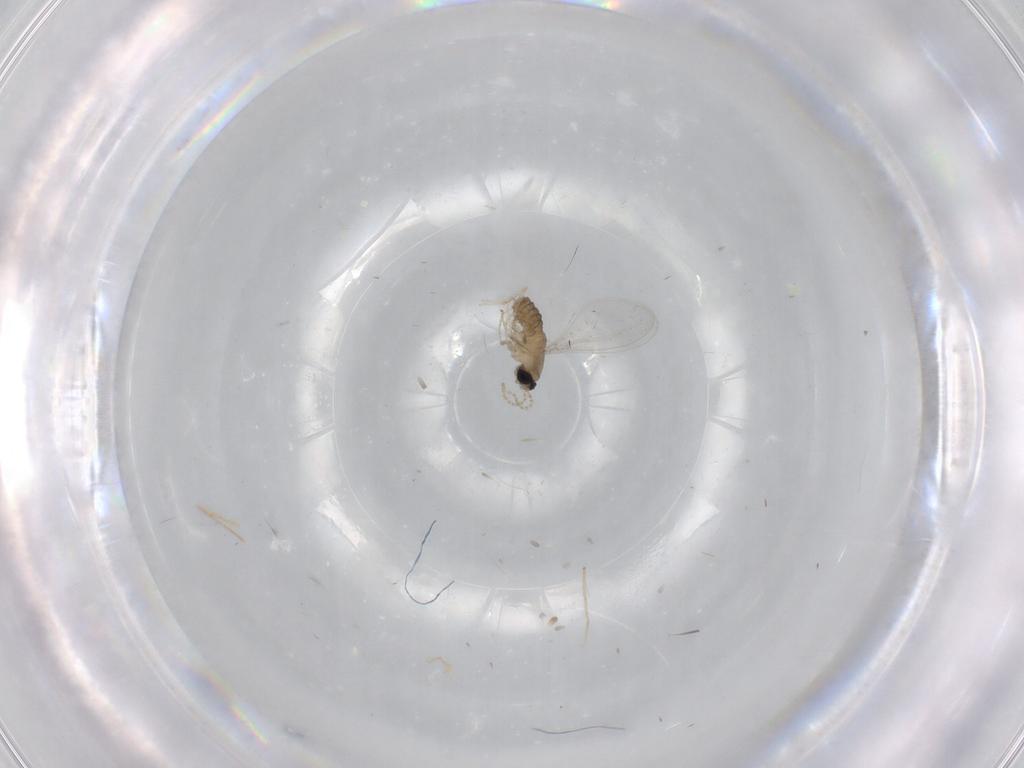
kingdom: Animalia
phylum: Arthropoda
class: Insecta
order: Diptera
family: Cecidomyiidae
